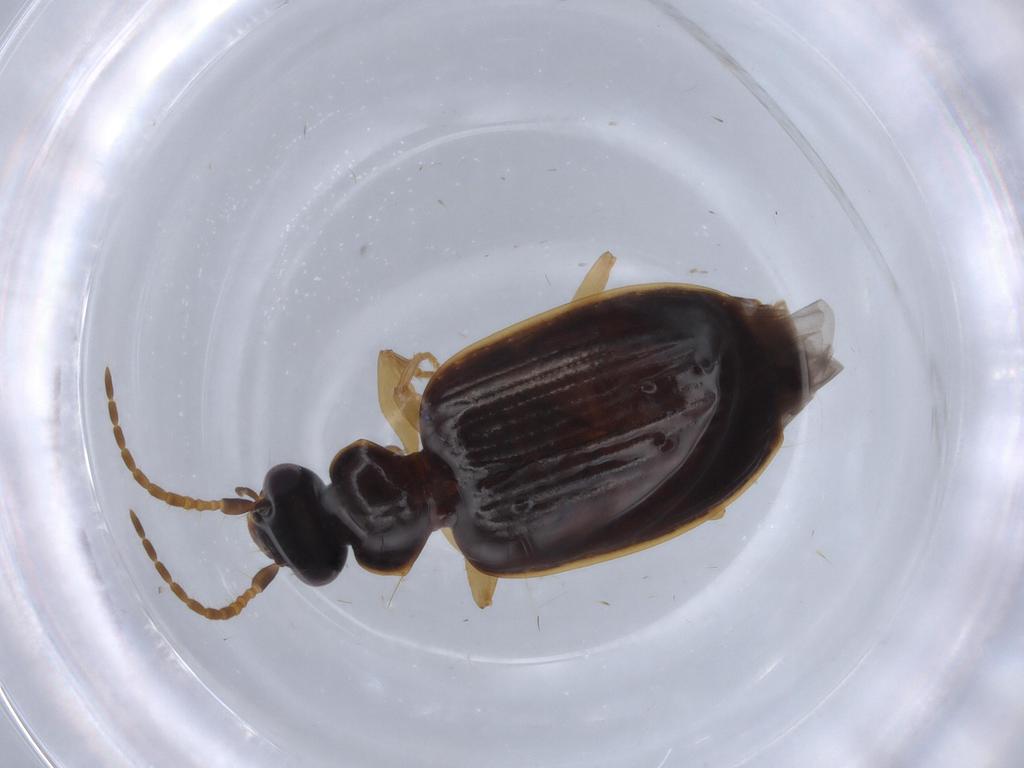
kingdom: Animalia
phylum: Arthropoda
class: Insecta
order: Coleoptera
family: Carabidae
